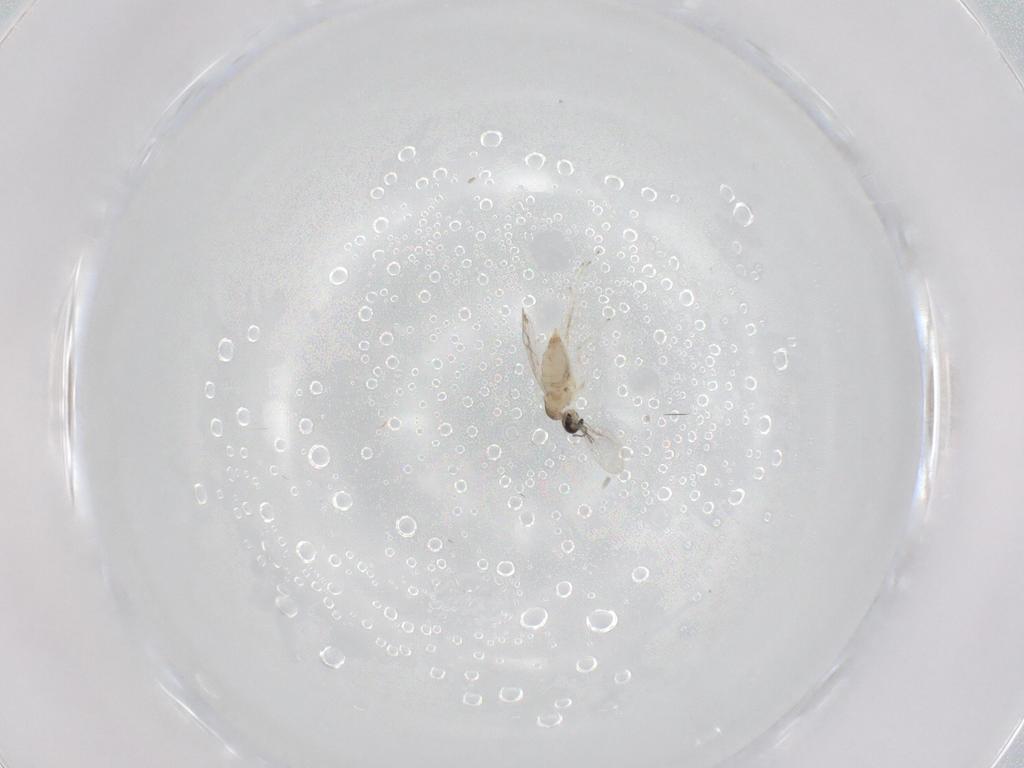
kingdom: Animalia
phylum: Arthropoda
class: Insecta
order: Diptera
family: Cecidomyiidae
